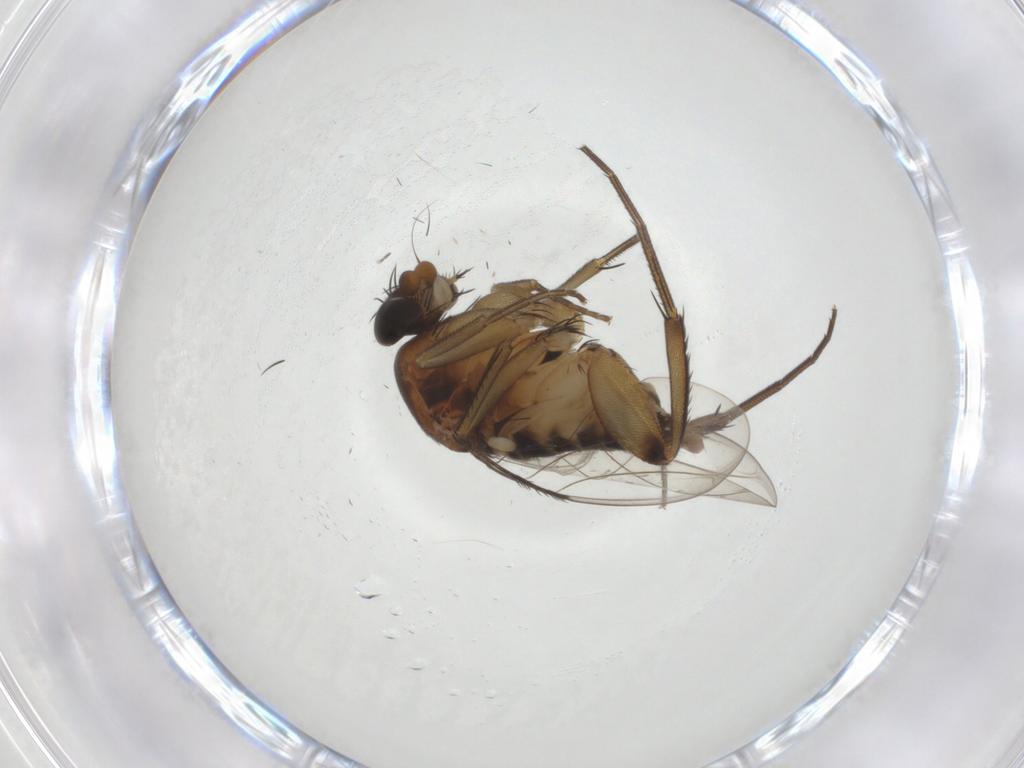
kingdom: Animalia
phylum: Arthropoda
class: Insecta
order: Diptera
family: Phoridae
